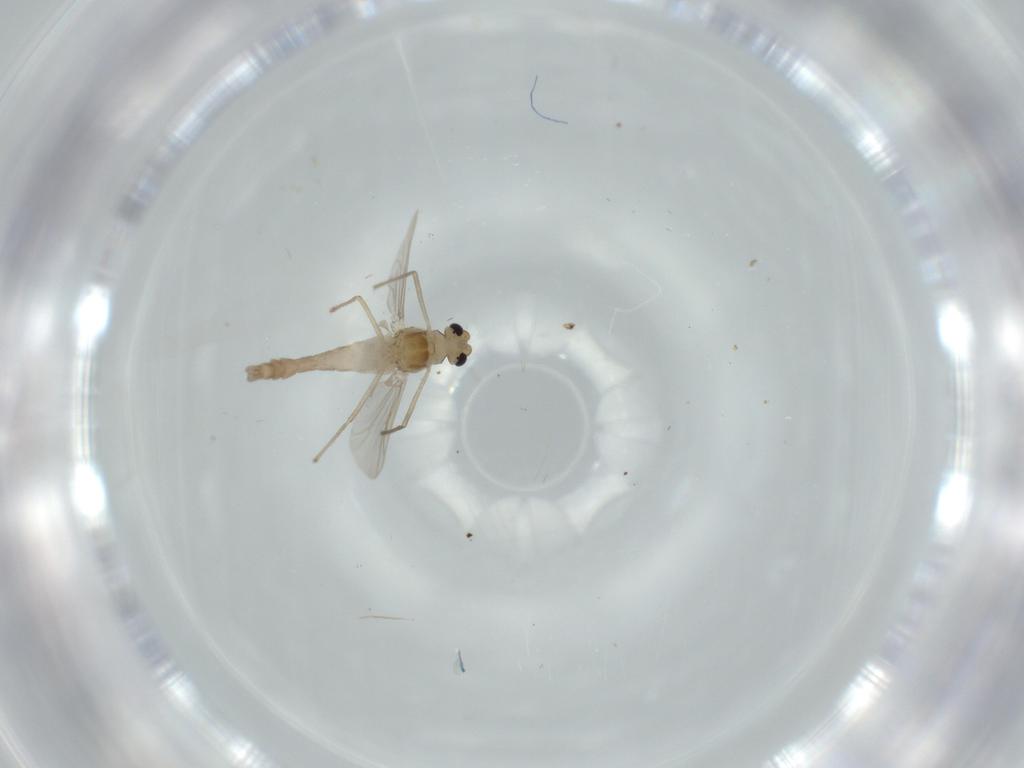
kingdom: Animalia
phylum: Arthropoda
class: Insecta
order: Diptera
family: Chironomidae
